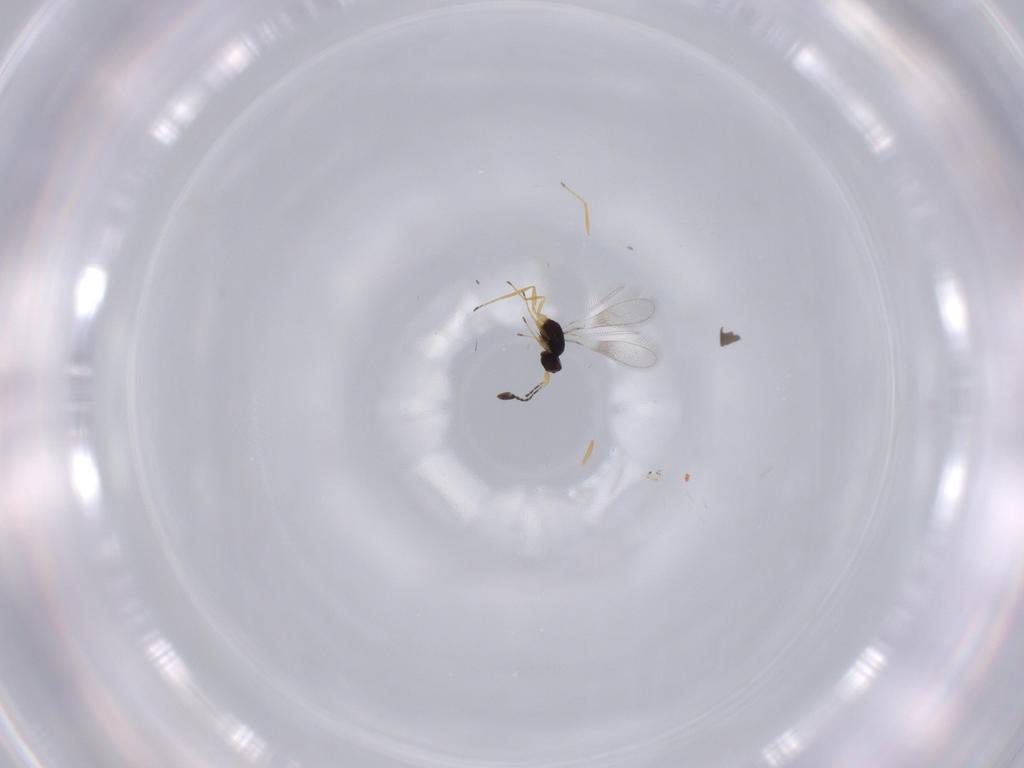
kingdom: Animalia
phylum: Arthropoda
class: Insecta
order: Hymenoptera
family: Mymaridae
